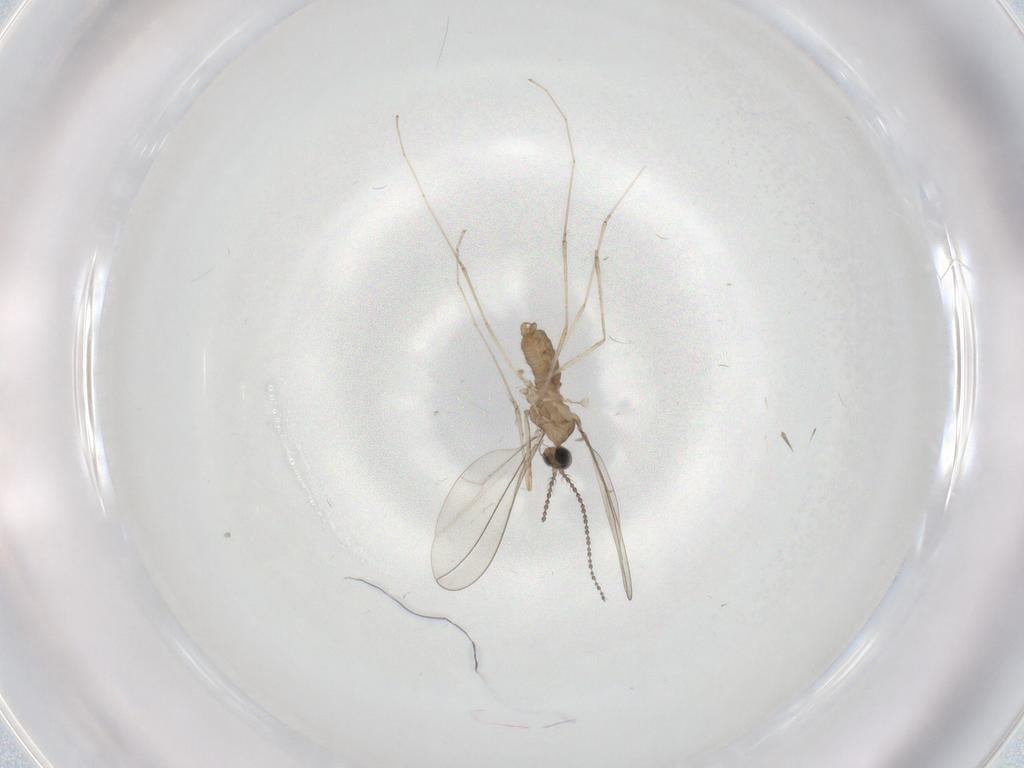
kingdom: Animalia
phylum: Arthropoda
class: Insecta
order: Diptera
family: Cecidomyiidae
